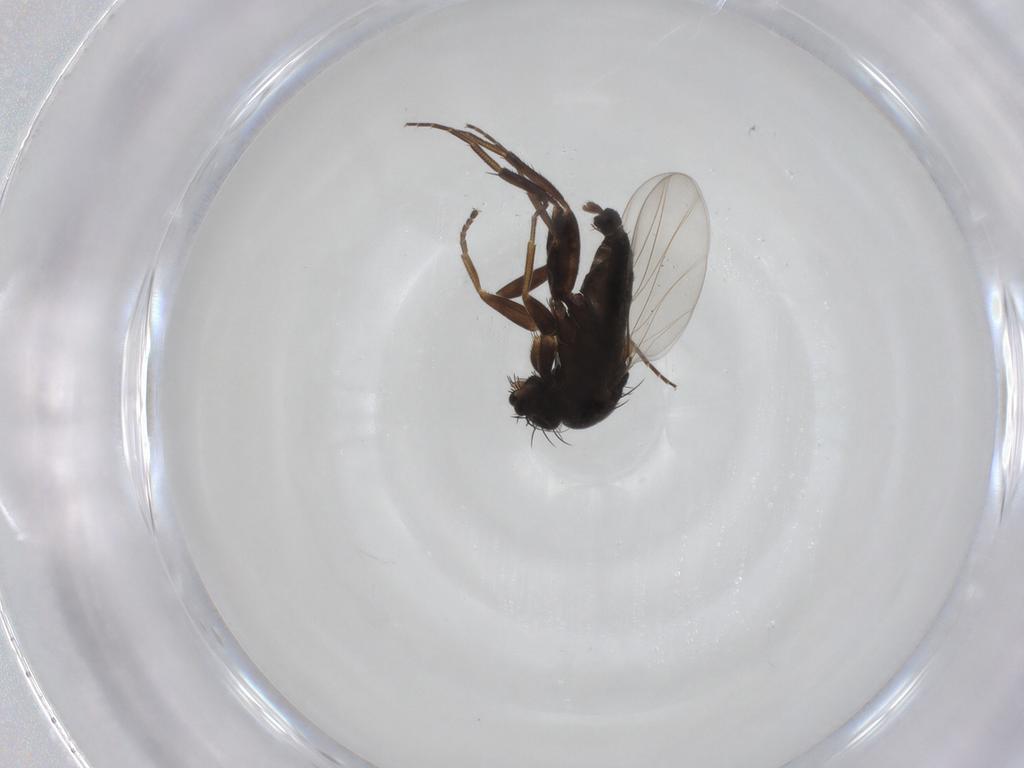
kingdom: Animalia
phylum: Arthropoda
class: Insecta
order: Diptera
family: Phoridae
